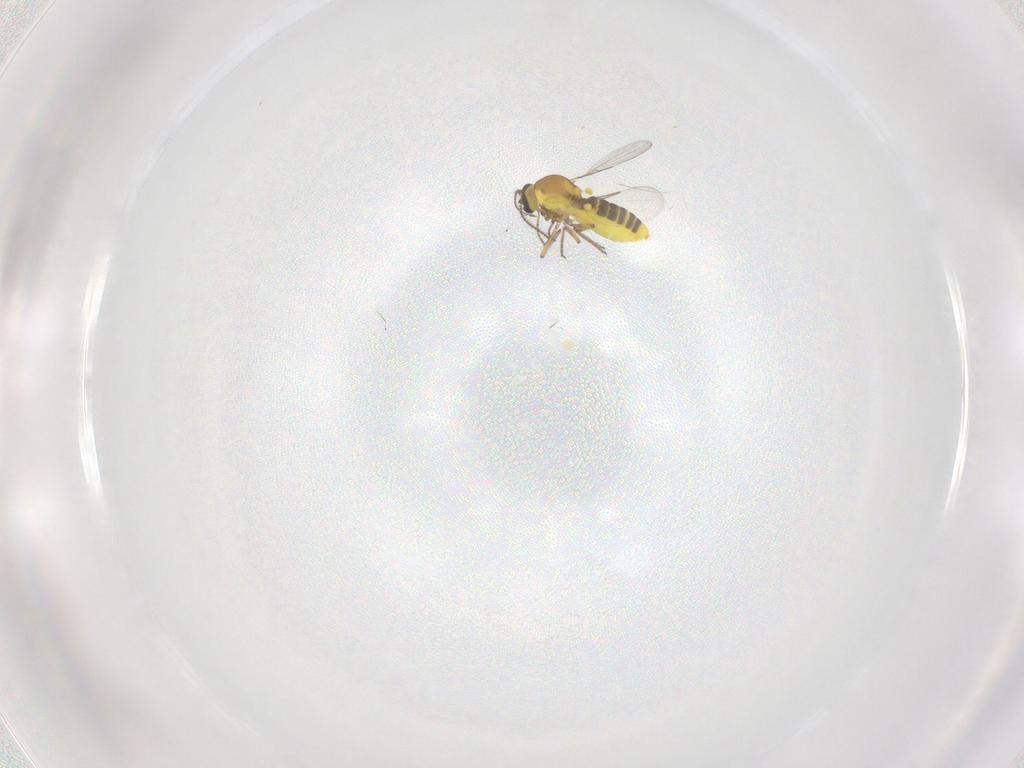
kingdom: Animalia
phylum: Arthropoda
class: Insecta
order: Diptera
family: Ceratopogonidae
